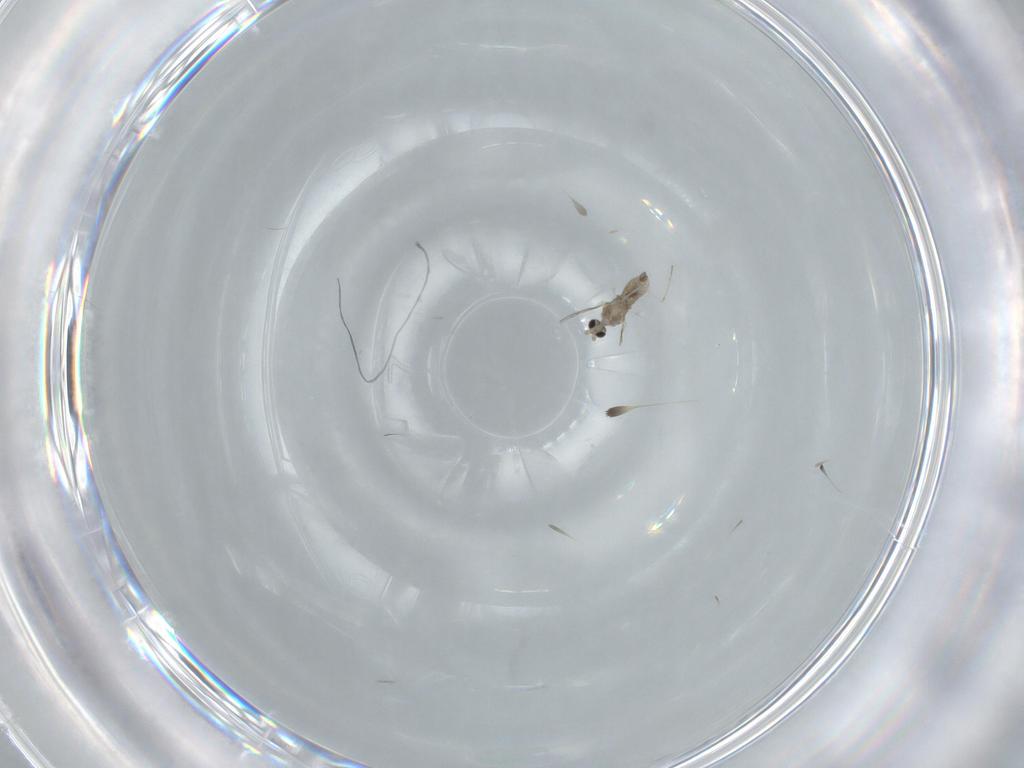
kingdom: Animalia
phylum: Arthropoda
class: Insecta
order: Diptera
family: Cecidomyiidae
